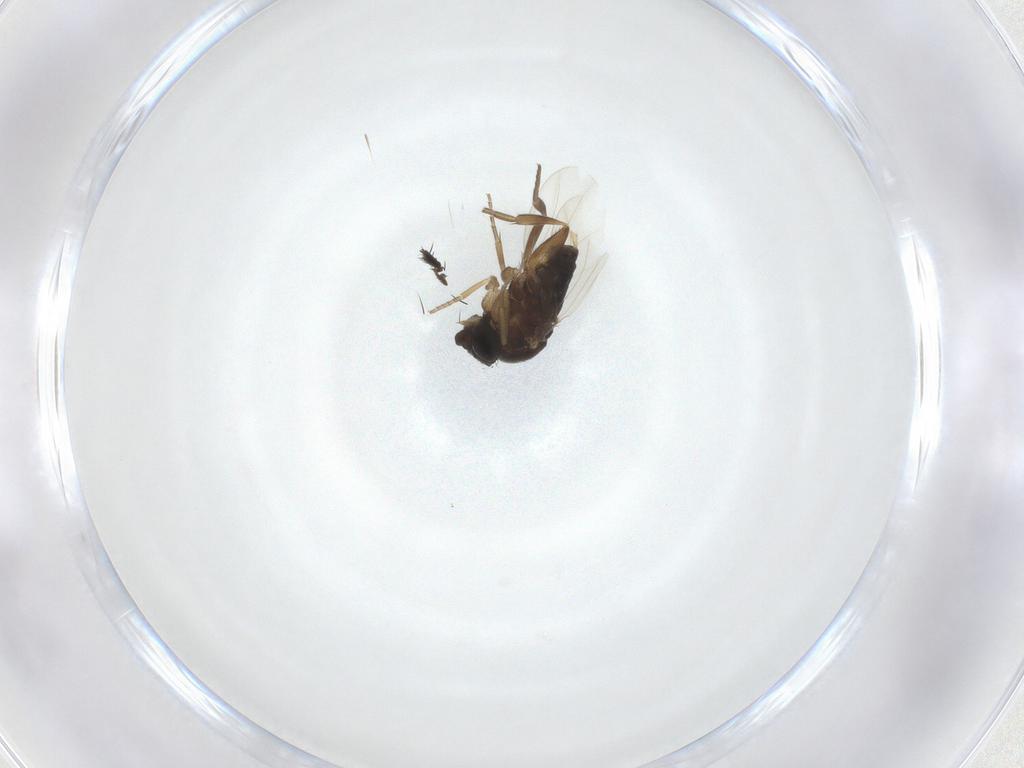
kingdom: Animalia
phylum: Arthropoda
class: Insecta
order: Diptera
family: Phoridae
